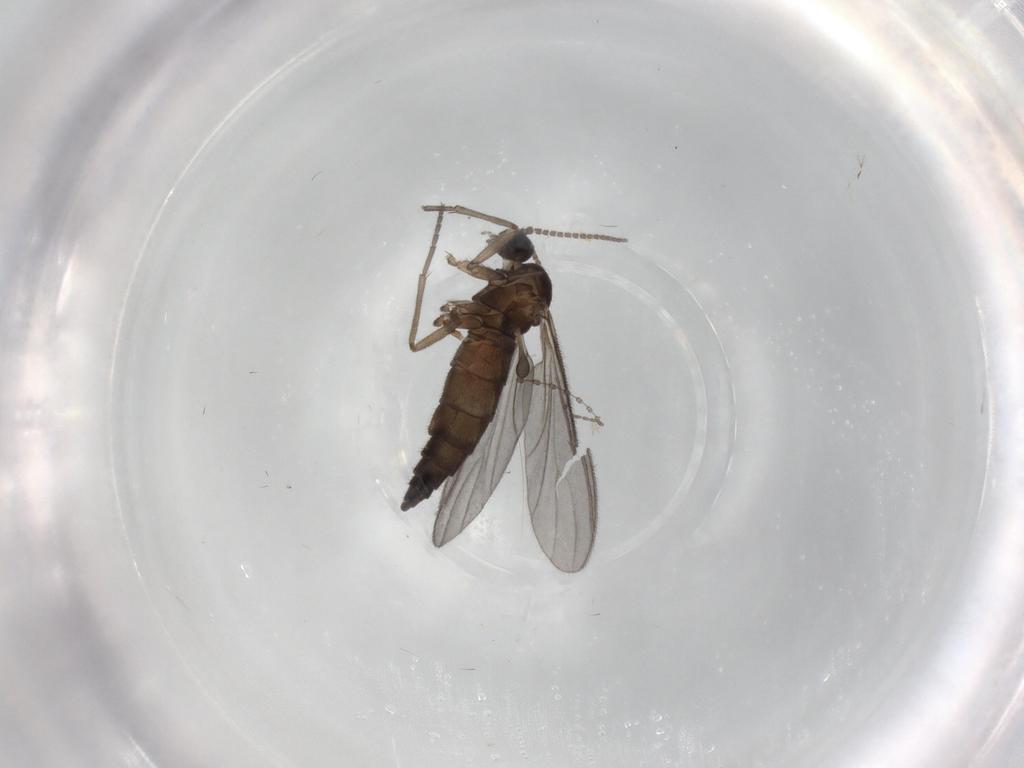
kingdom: Animalia
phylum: Arthropoda
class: Insecta
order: Diptera
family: Sciaridae
